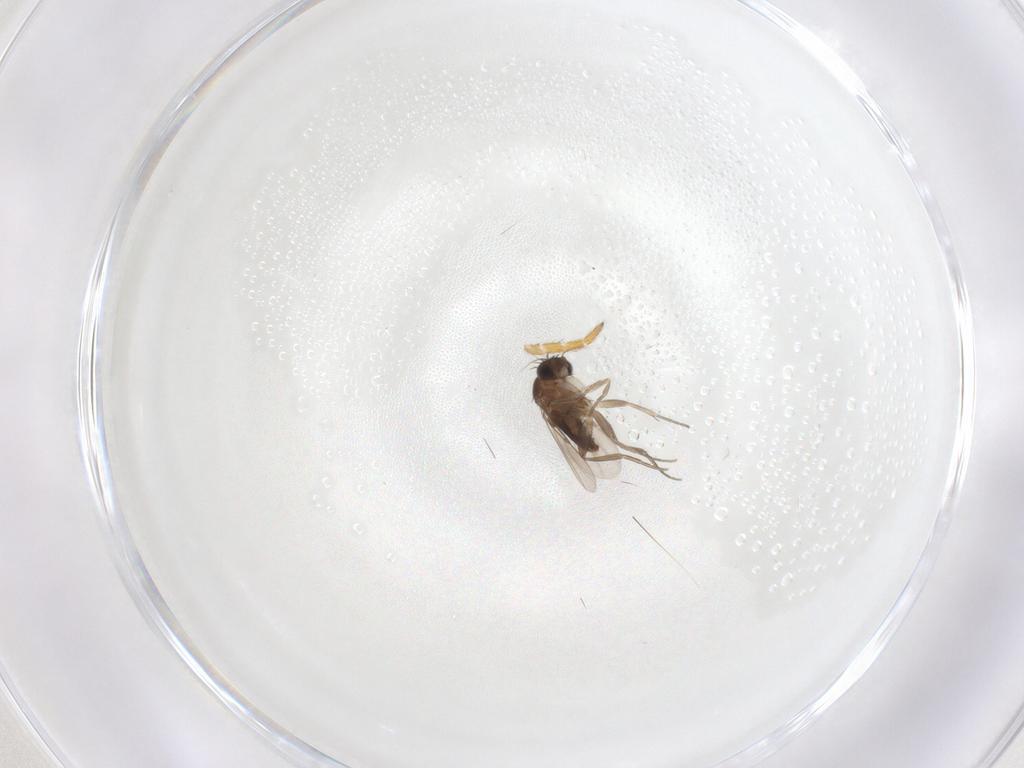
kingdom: Animalia
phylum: Arthropoda
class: Insecta
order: Diptera
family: Phoridae
